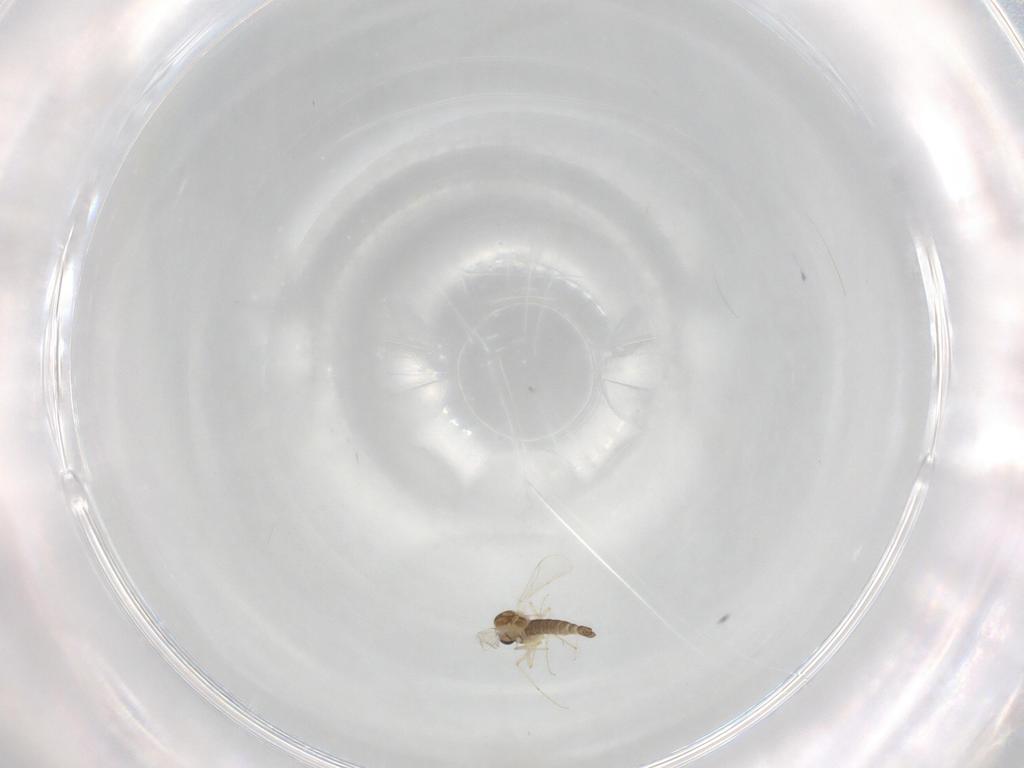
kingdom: Animalia
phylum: Arthropoda
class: Insecta
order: Diptera
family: Chironomidae
